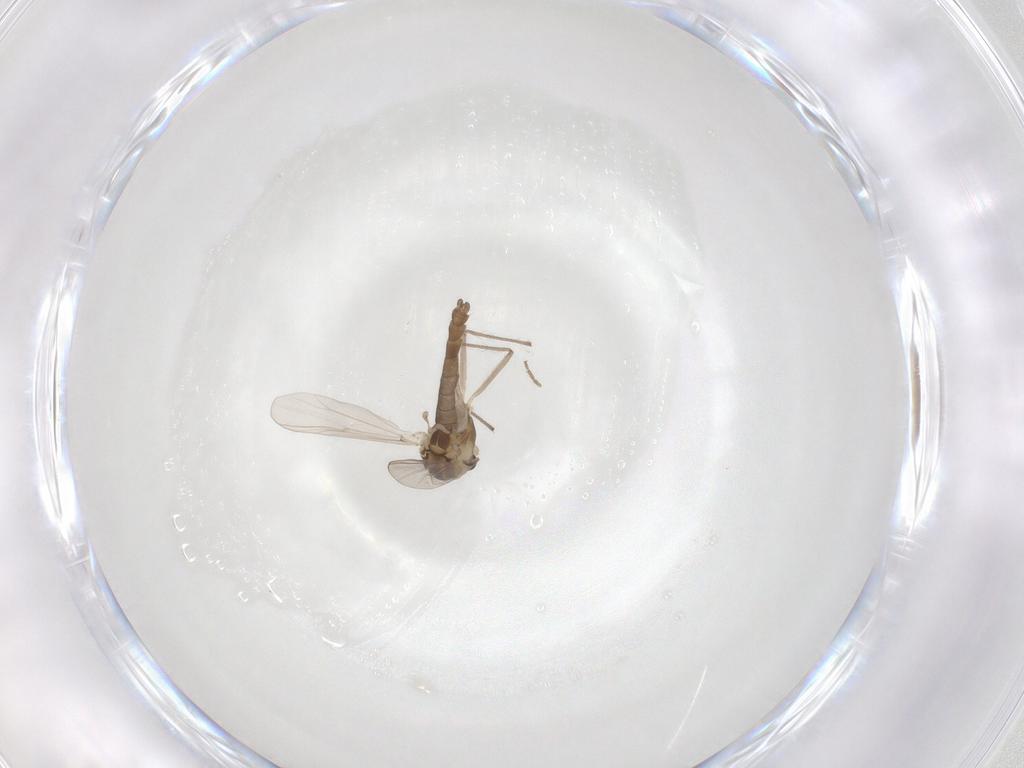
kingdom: Animalia
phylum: Arthropoda
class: Insecta
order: Diptera
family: Chironomidae
